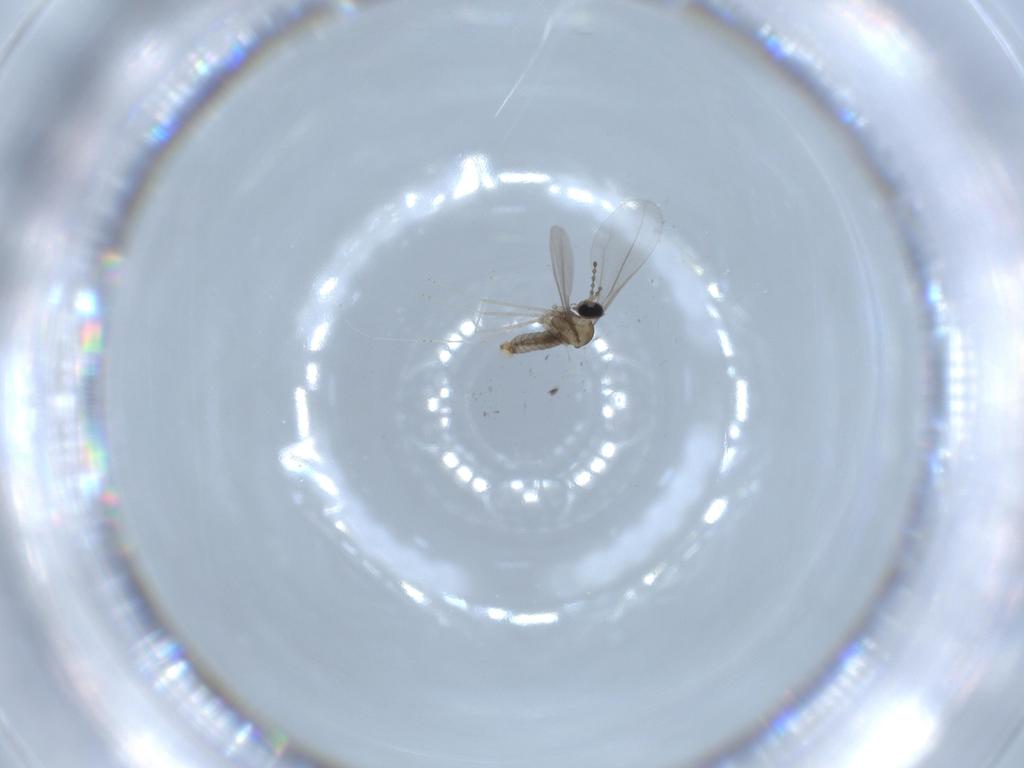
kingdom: Animalia
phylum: Arthropoda
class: Insecta
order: Diptera
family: Cecidomyiidae
